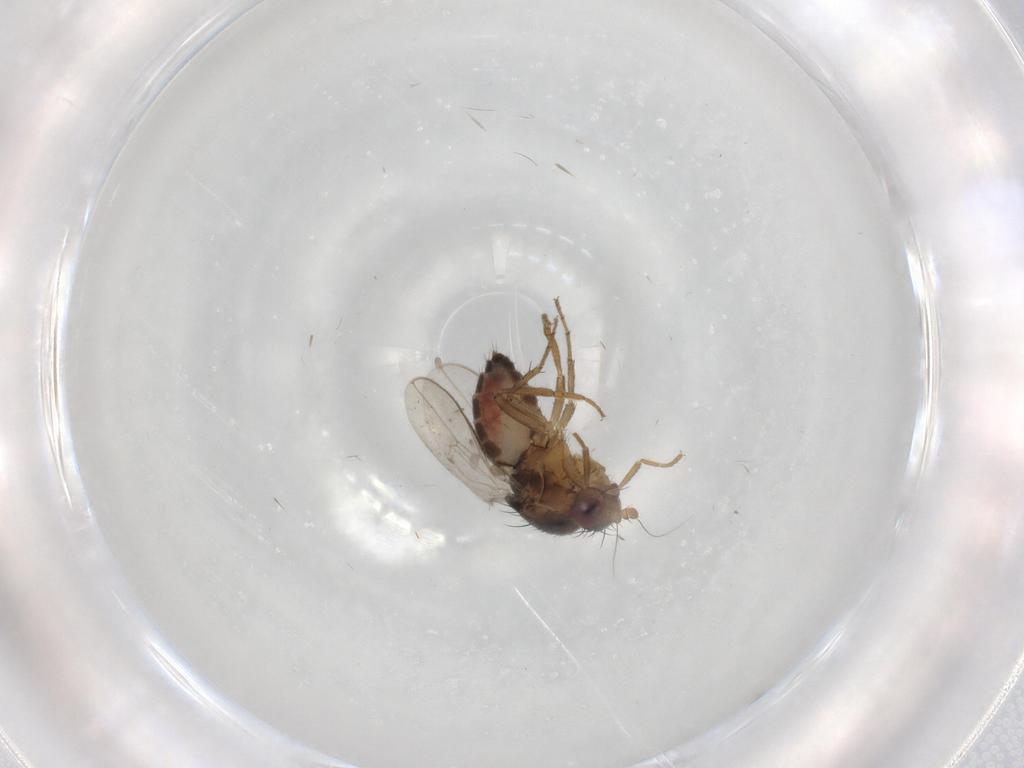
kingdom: Animalia
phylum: Arthropoda
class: Insecta
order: Diptera
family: Sphaeroceridae
